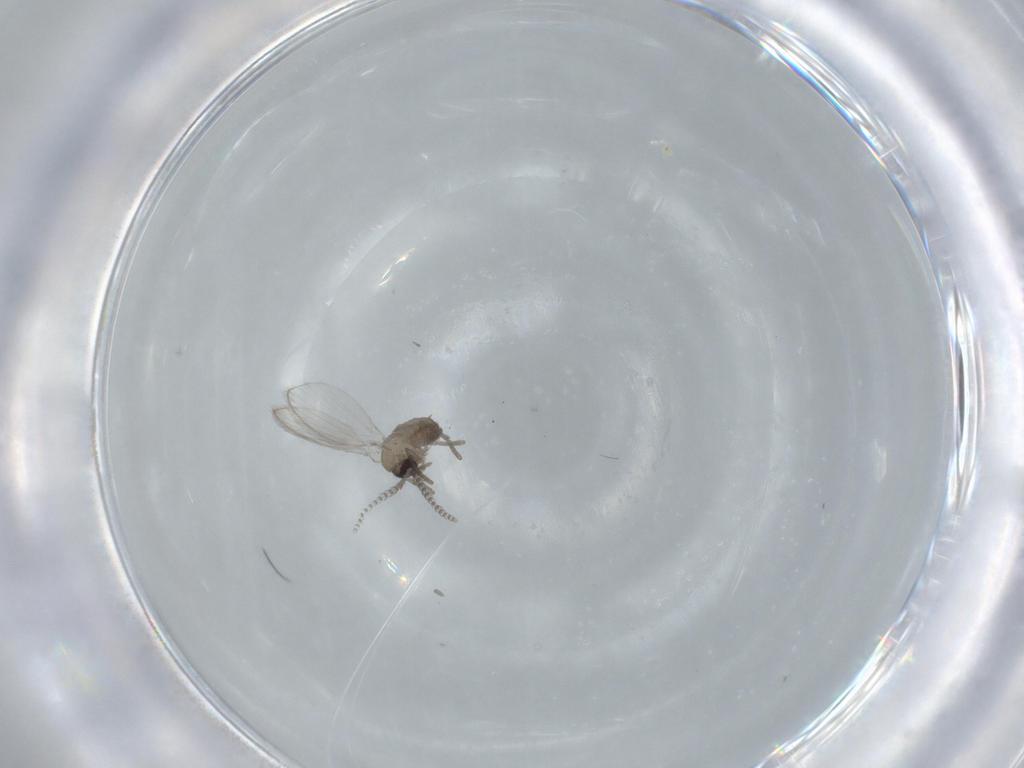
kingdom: Animalia
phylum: Arthropoda
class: Insecta
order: Diptera
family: Psychodidae
